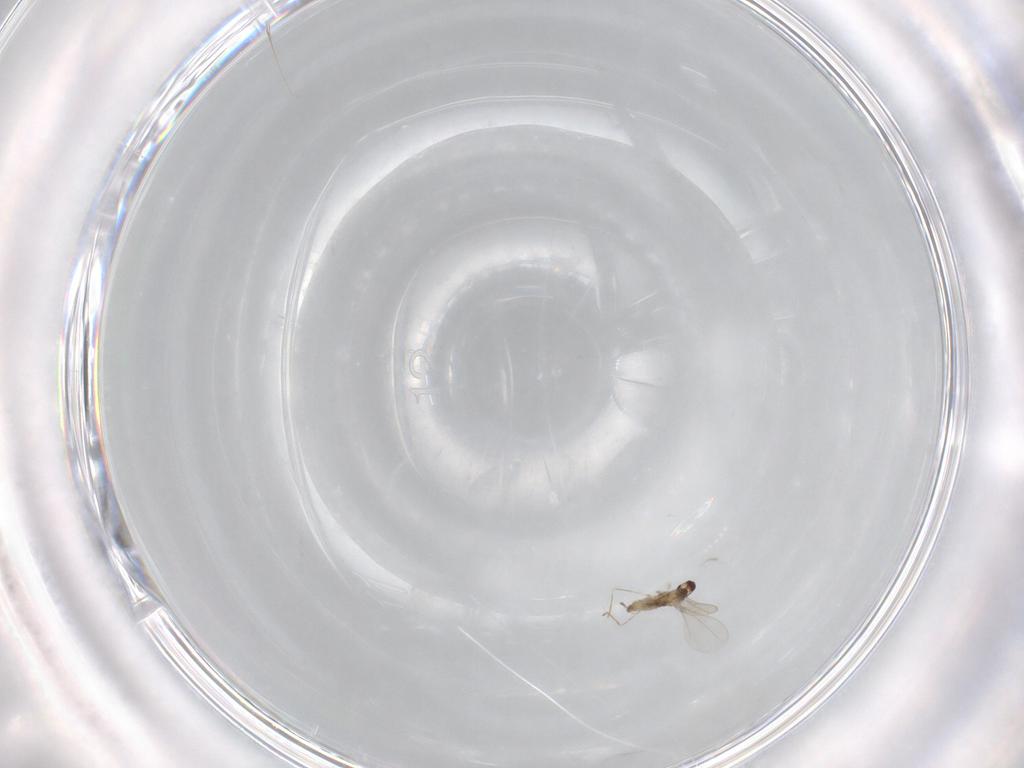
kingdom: Animalia
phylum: Arthropoda
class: Insecta
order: Diptera
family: Cecidomyiidae
